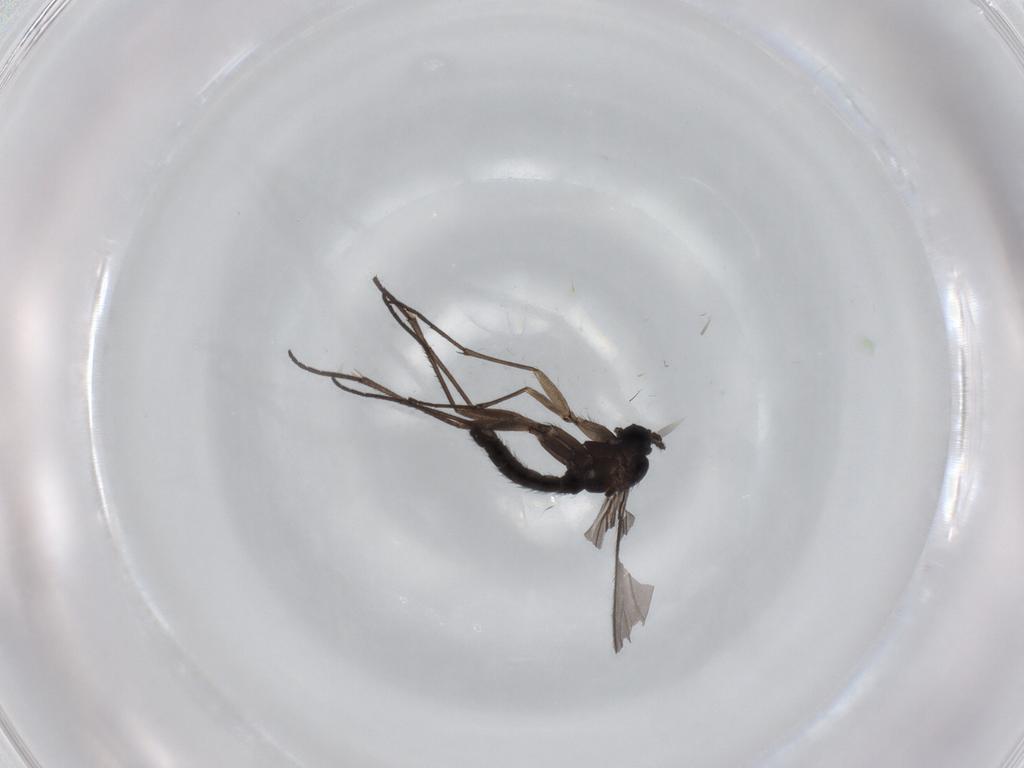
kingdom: Animalia
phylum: Arthropoda
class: Insecta
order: Diptera
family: Sciaridae
